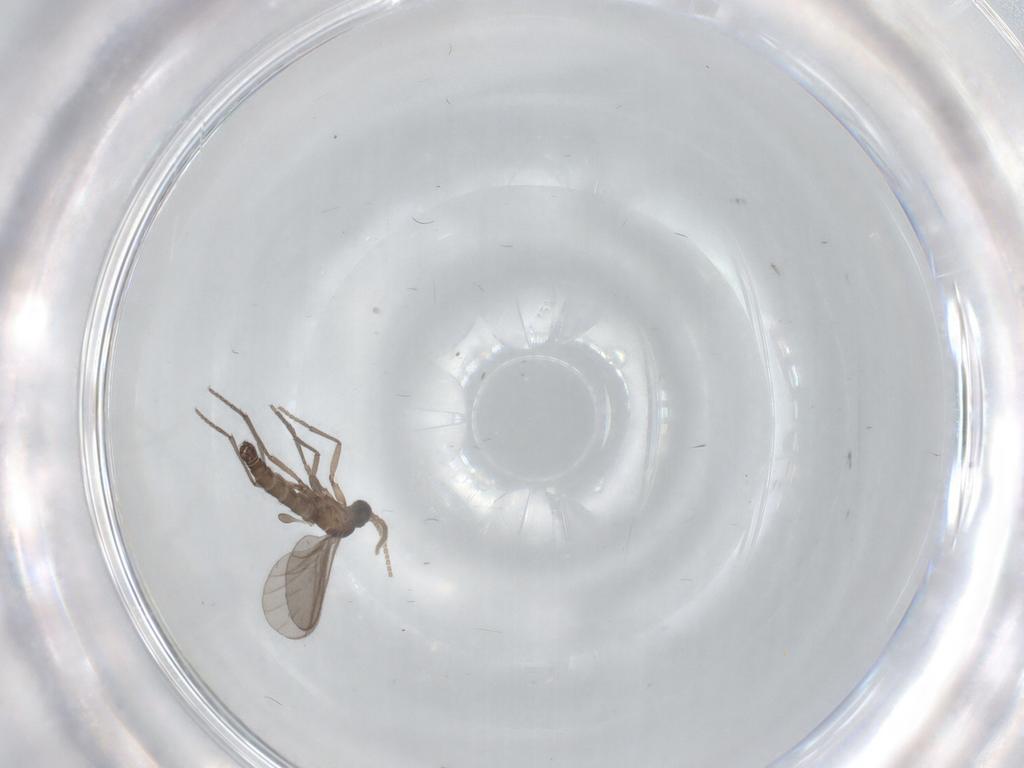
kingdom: Animalia
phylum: Arthropoda
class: Insecta
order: Diptera
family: Sciaridae
